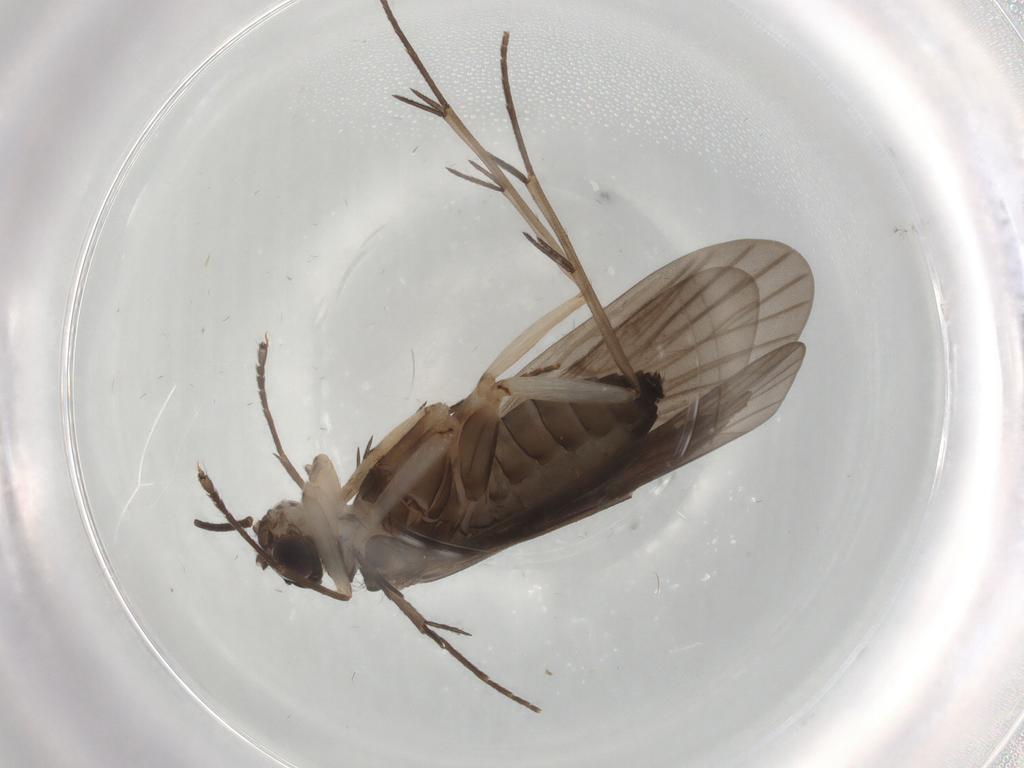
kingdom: Animalia
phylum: Arthropoda
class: Insecta
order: Trichoptera
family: Philopotamidae
